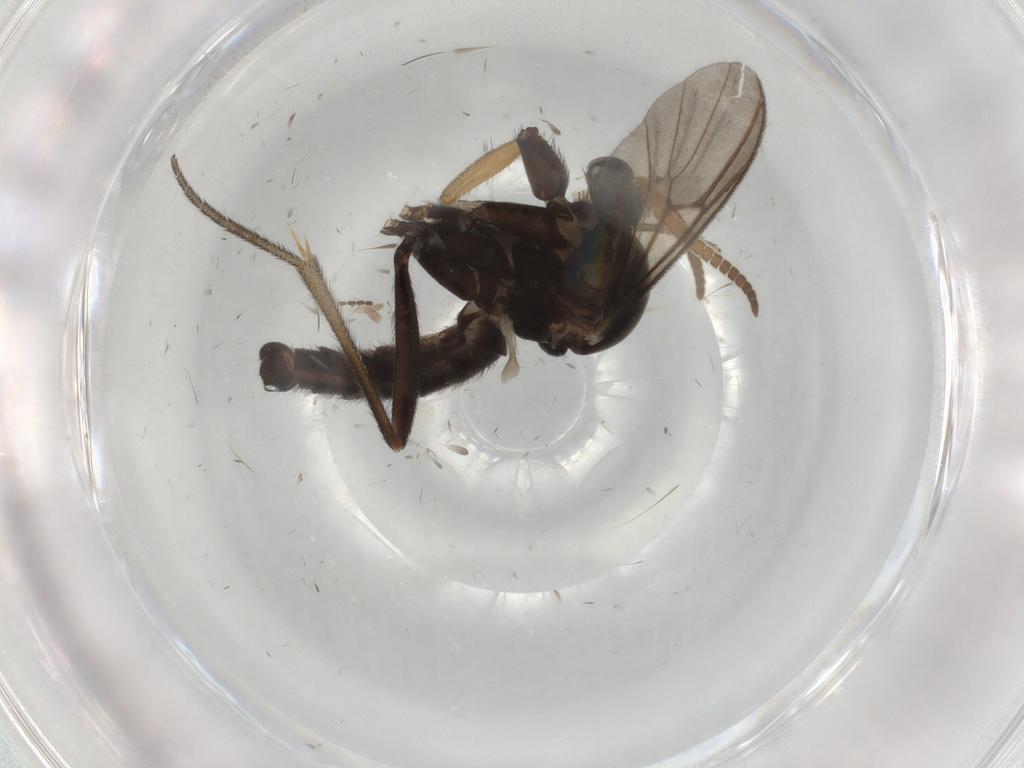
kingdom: Animalia
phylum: Arthropoda
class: Insecta
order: Diptera
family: Mycetophilidae
